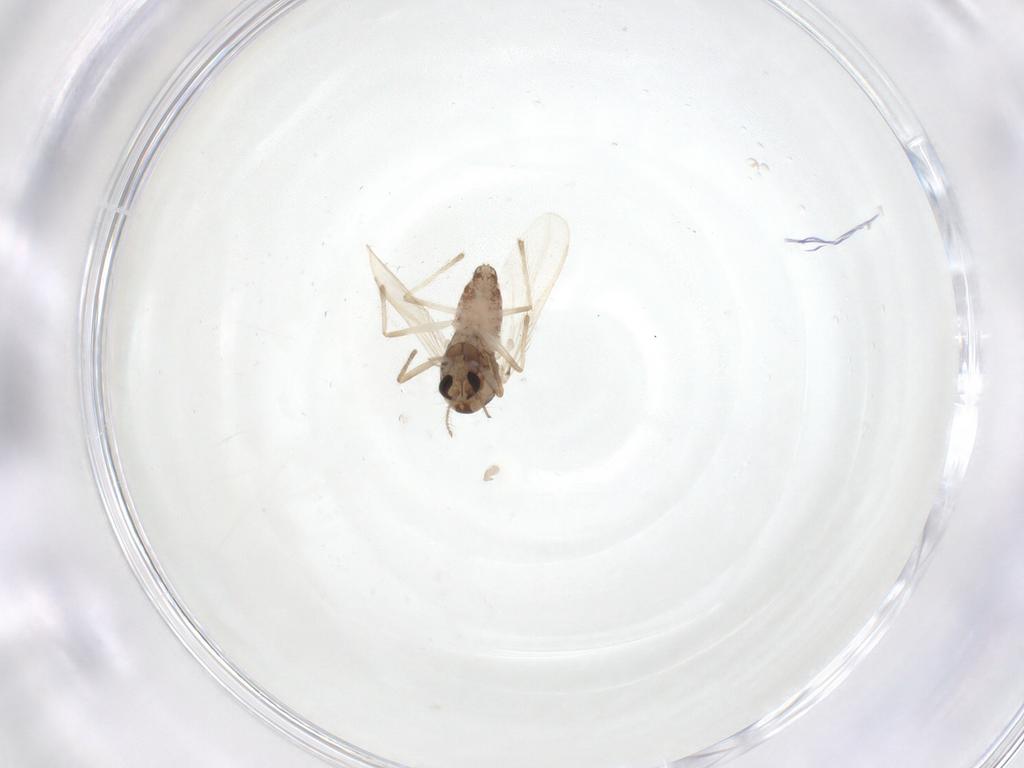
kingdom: Animalia
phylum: Arthropoda
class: Insecta
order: Diptera
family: Chironomidae
